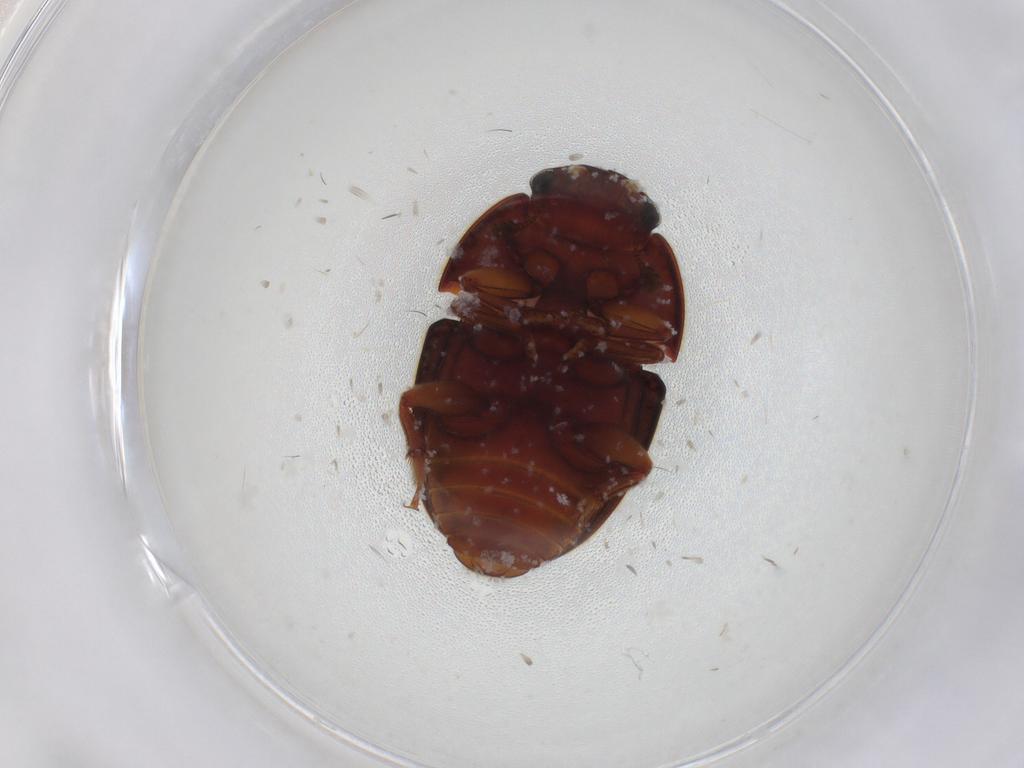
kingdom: Animalia
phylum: Arthropoda
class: Insecta
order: Coleoptera
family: Nitidulidae
